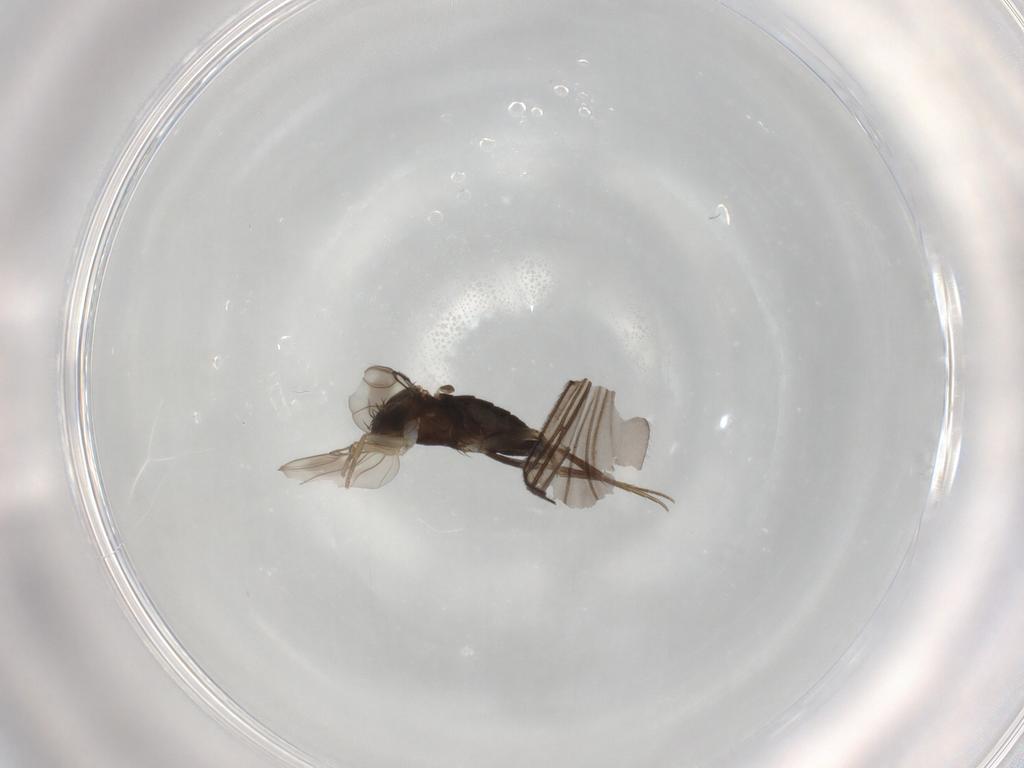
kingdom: Animalia
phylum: Arthropoda
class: Insecta
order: Diptera
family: Phoridae
